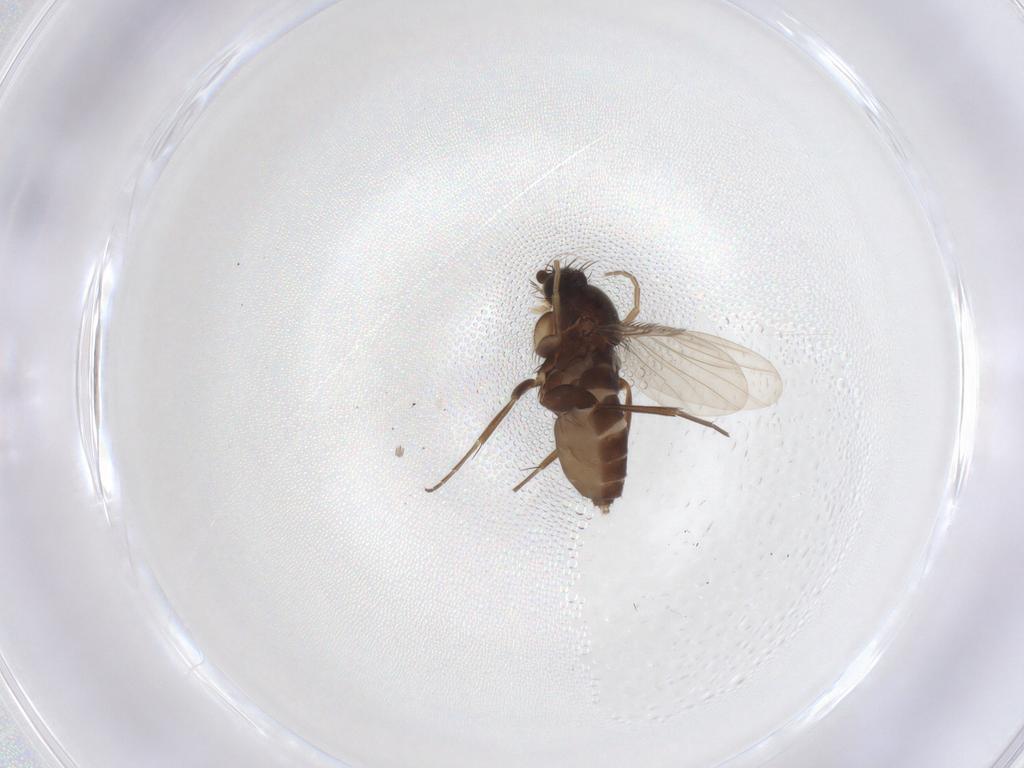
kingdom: Animalia
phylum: Arthropoda
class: Insecta
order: Diptera
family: Phoridae
